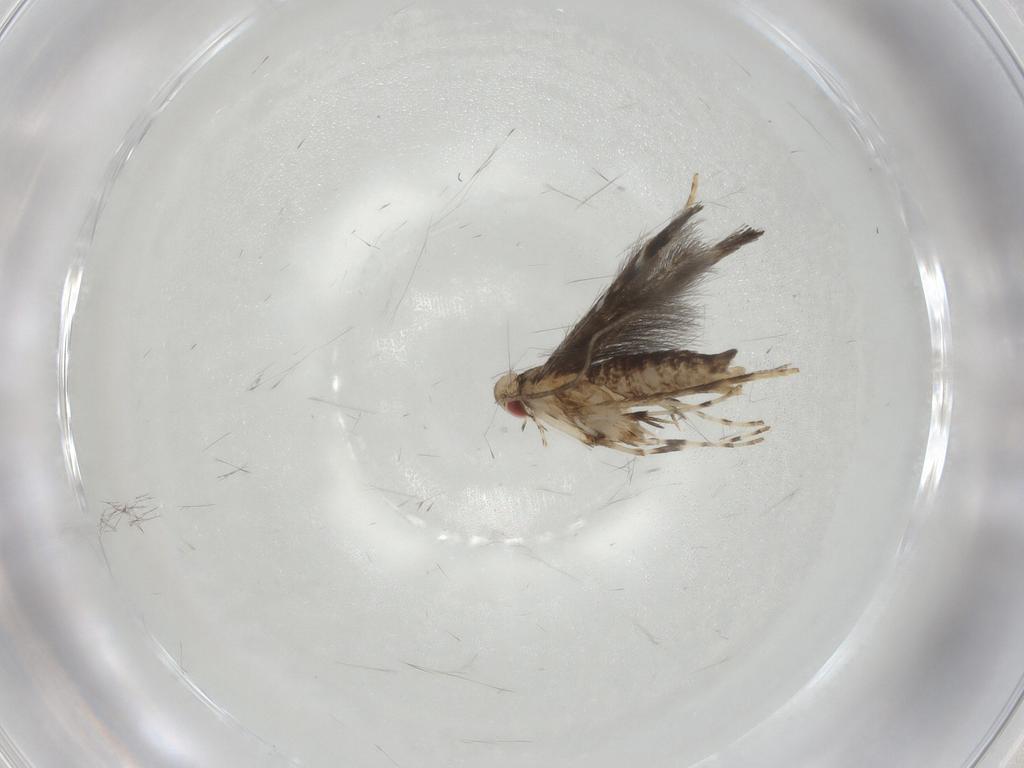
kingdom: Animalia
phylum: Arthropoda
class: Insecta
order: Lepidoptera
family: Gracillariidae
